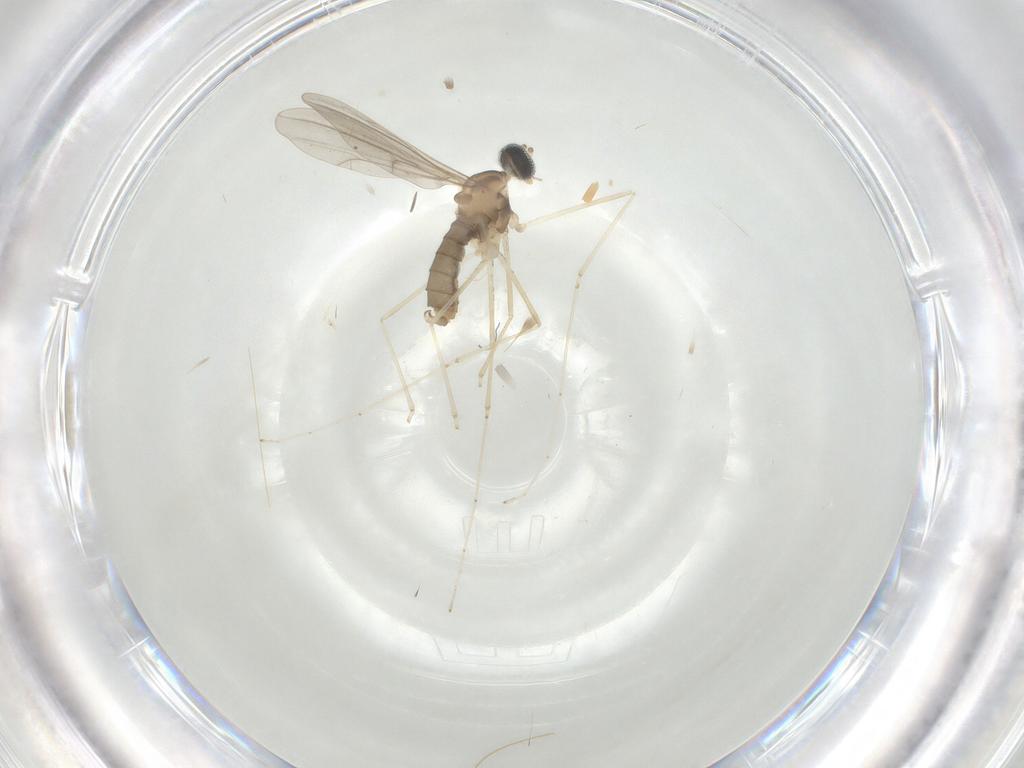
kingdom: Animalia
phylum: Arthropoda
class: Insecta
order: Diptera
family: Cecidomyiidae
